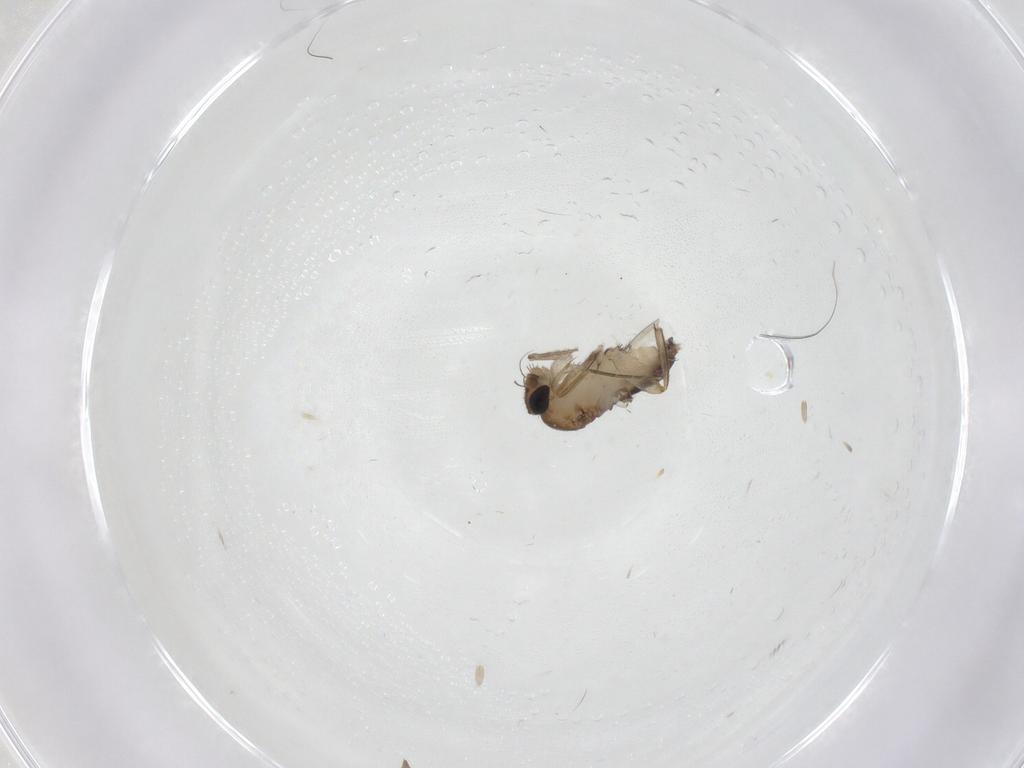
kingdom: Animalia
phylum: Arthropoda
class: Insecta
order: Diptera
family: Phoridae
